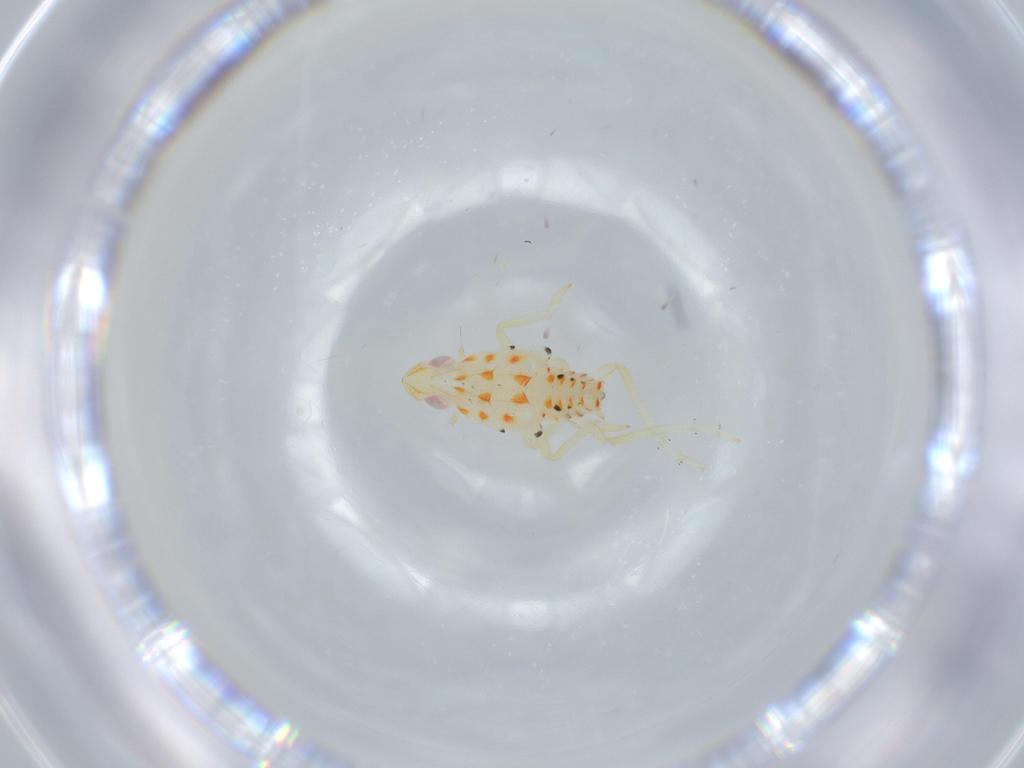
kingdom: Animalia
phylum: Arthropoda
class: Insecta
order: Hemiptera
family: Tropiduchidae
